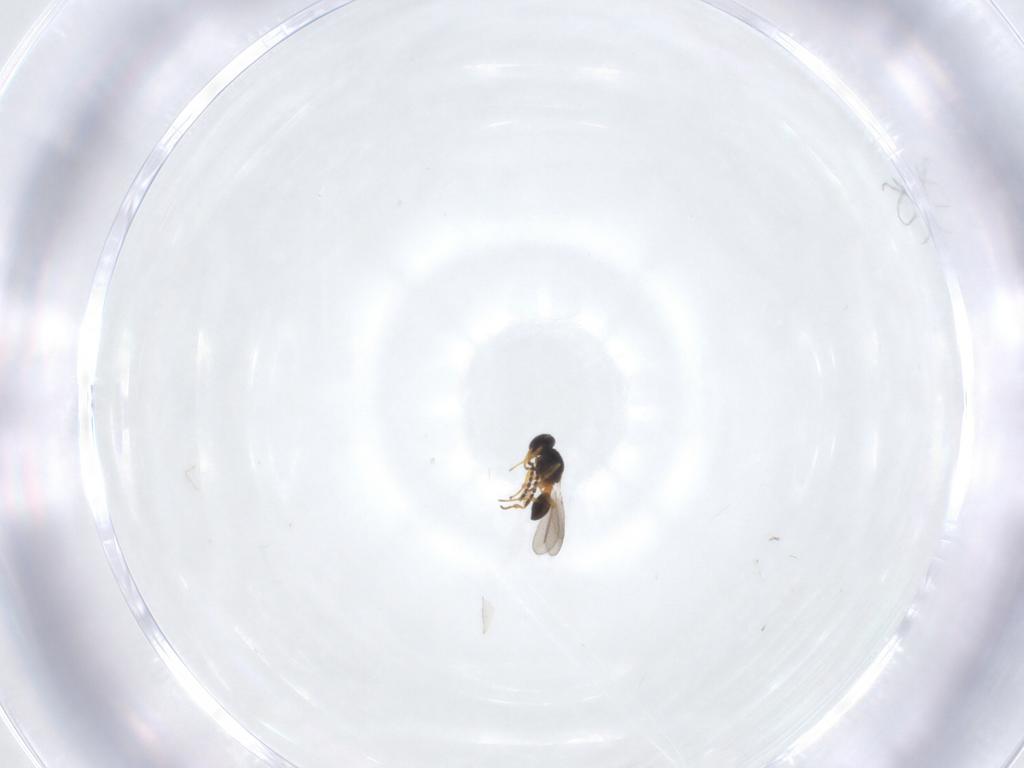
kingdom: Animalia
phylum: Arthropoda
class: Insecta
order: Hymenoptera
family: Platygastridae
